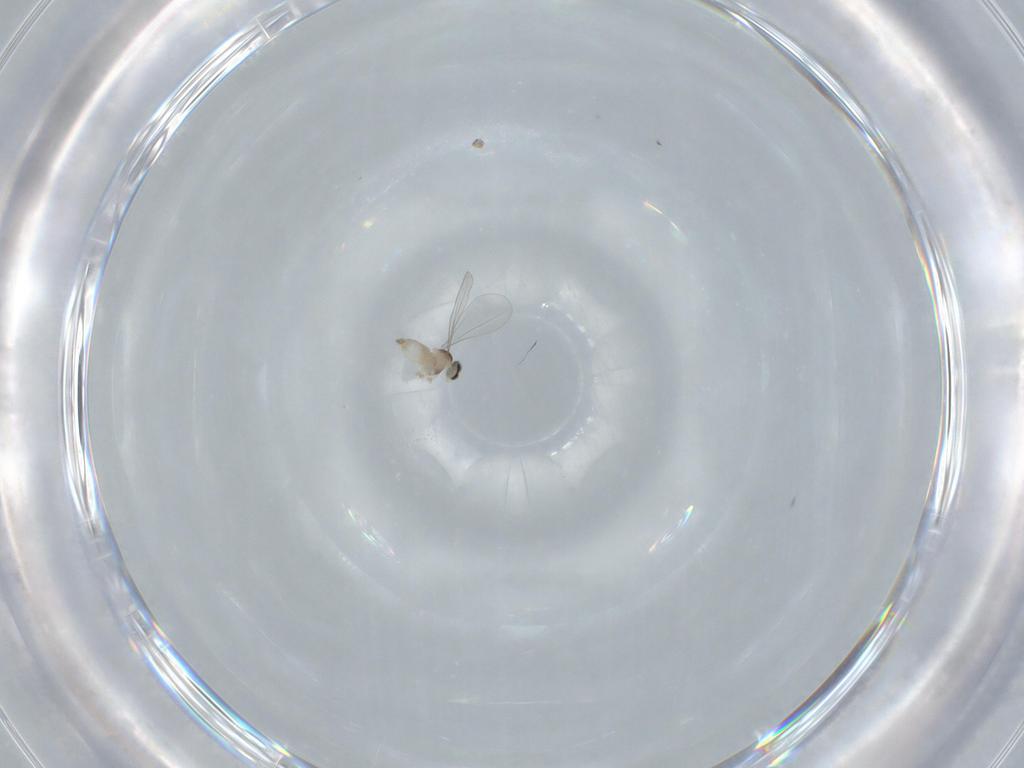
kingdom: Animalia
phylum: Arthropoda
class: Insecta
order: Diptera
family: Cecidomyiidae
